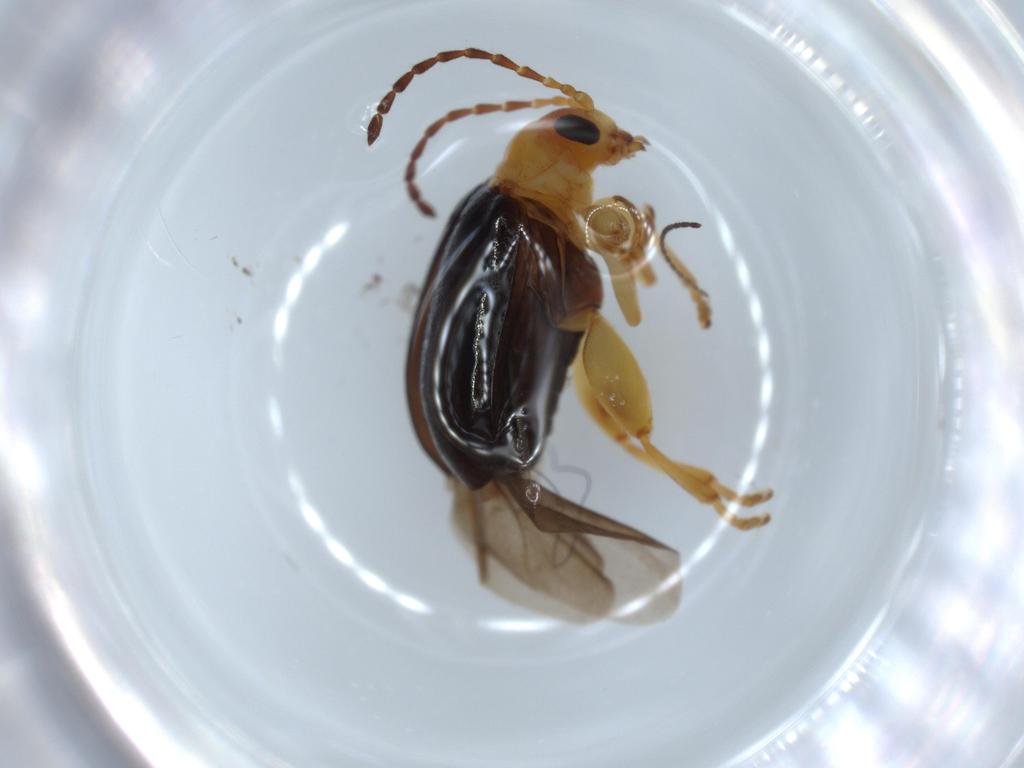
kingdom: Animalia
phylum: Arthropoda
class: Insecta
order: Coleoptera
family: Chrysomelidae
